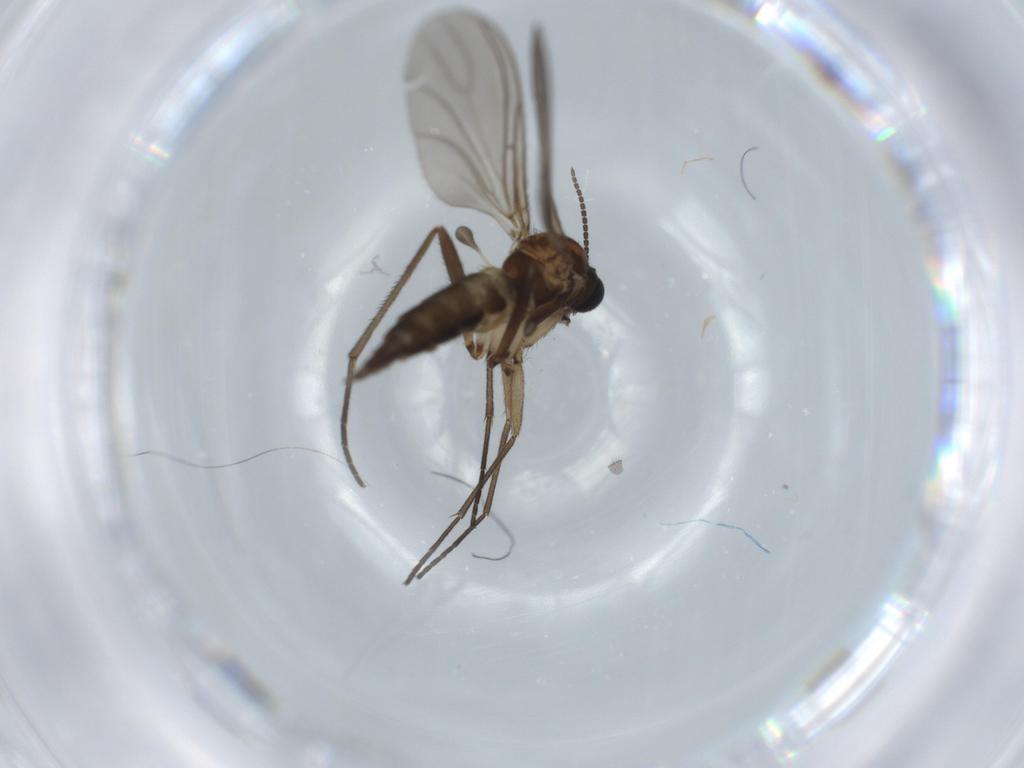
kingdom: Animalia
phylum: Arthropoda
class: Insecta
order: Diptera
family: Sciaridae
